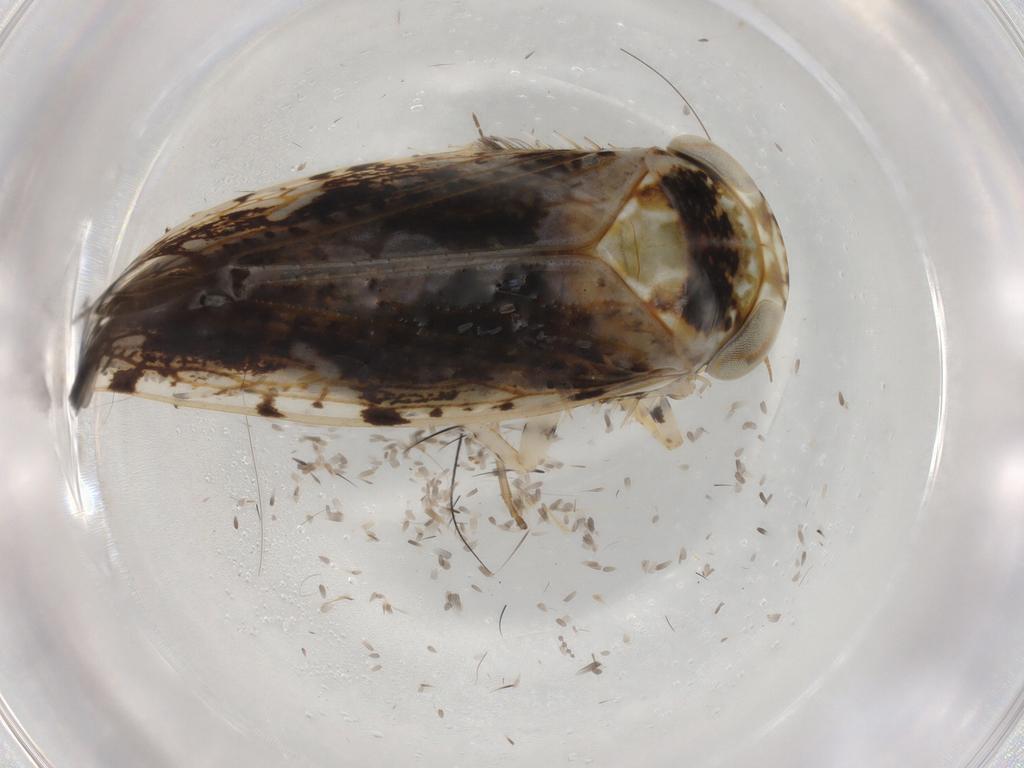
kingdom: Animalia
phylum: Arthropoda
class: Insecta
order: Hemiptera
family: Cicadellidae
